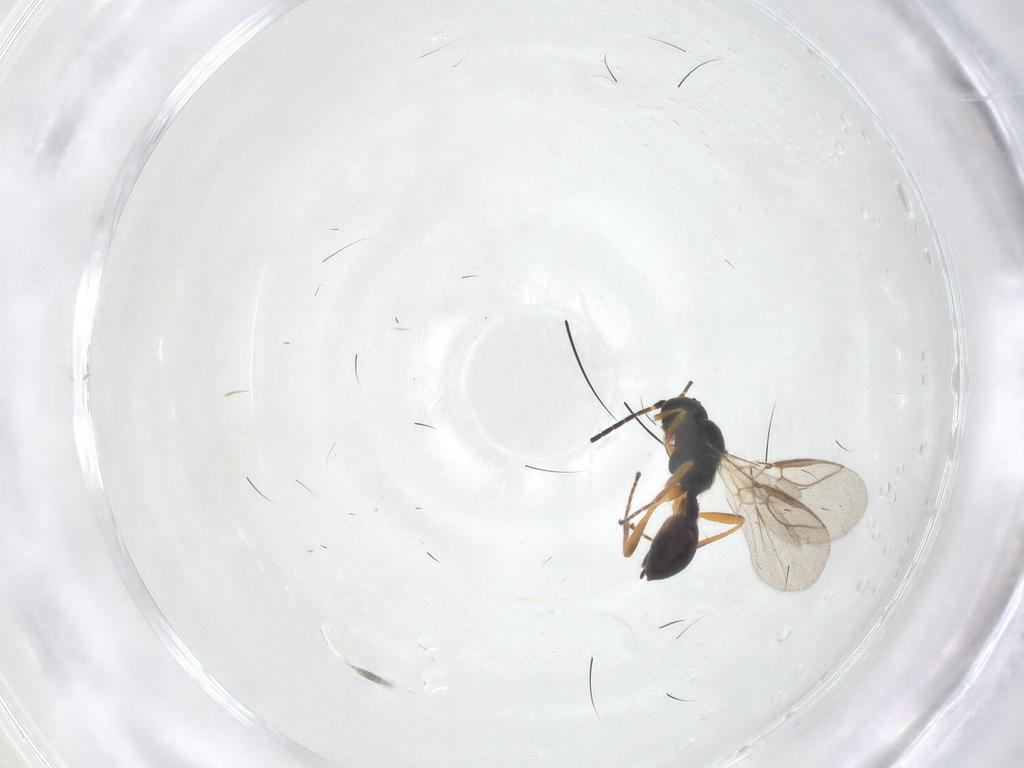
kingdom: Animalia
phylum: Arthropoda
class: Insecta
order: Hymenoptera
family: Braconidae
